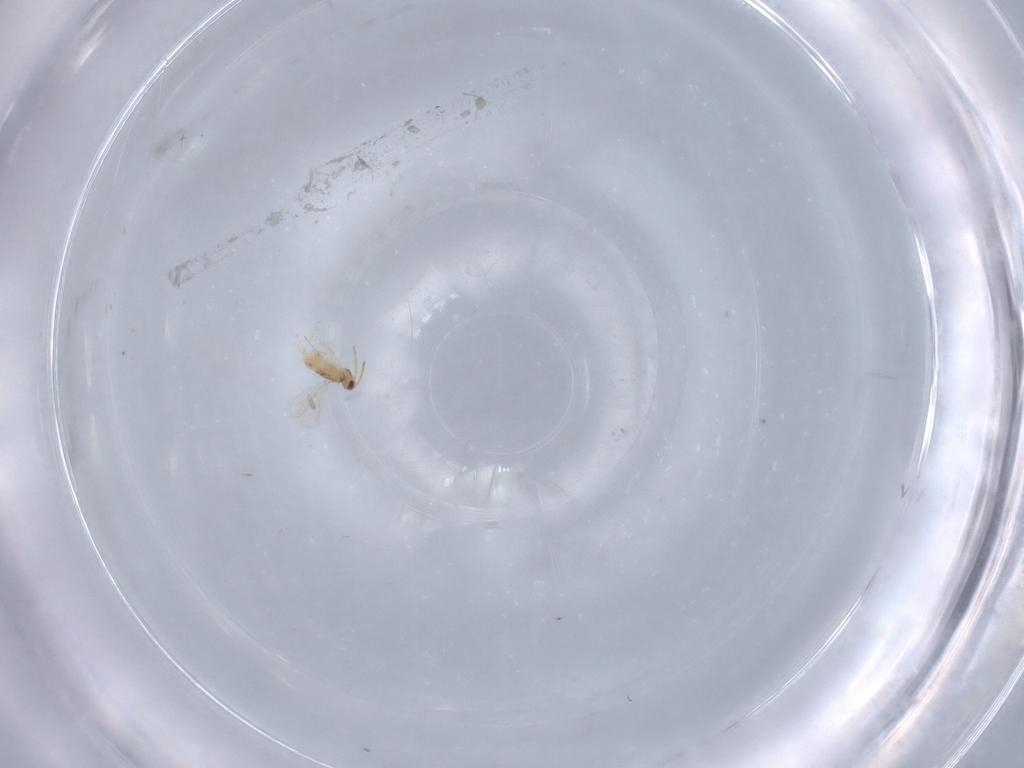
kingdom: Animalia
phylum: Arthropoda
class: Insecta
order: Hymenoptera
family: Aphelinidae
